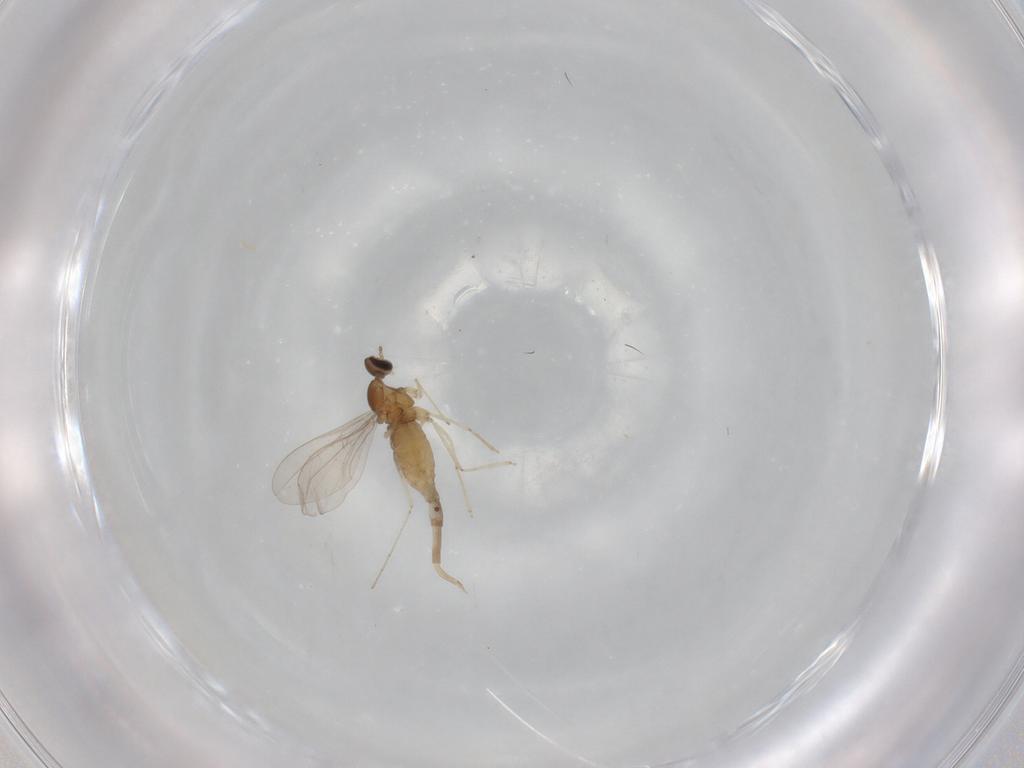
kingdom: Animalia
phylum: Arthropoda
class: Insecta
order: Diptera
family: Cecidomyiidae
